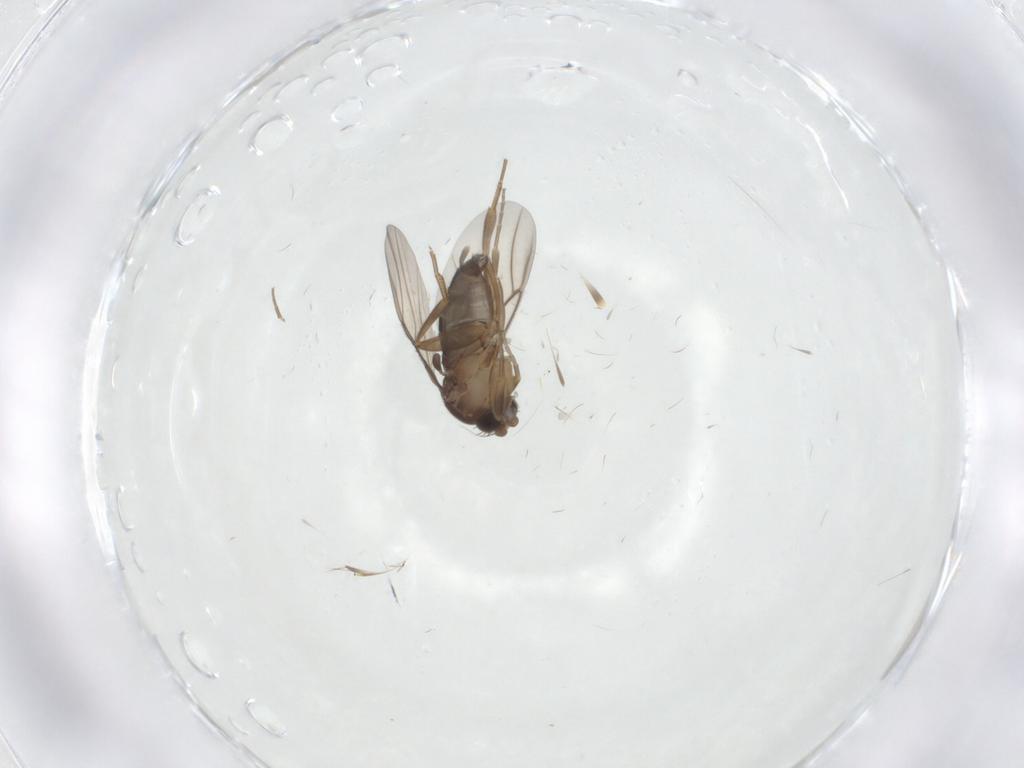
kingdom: Animalia
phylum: Arthropoda
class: Insecta
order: Diptera
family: Phoridae
